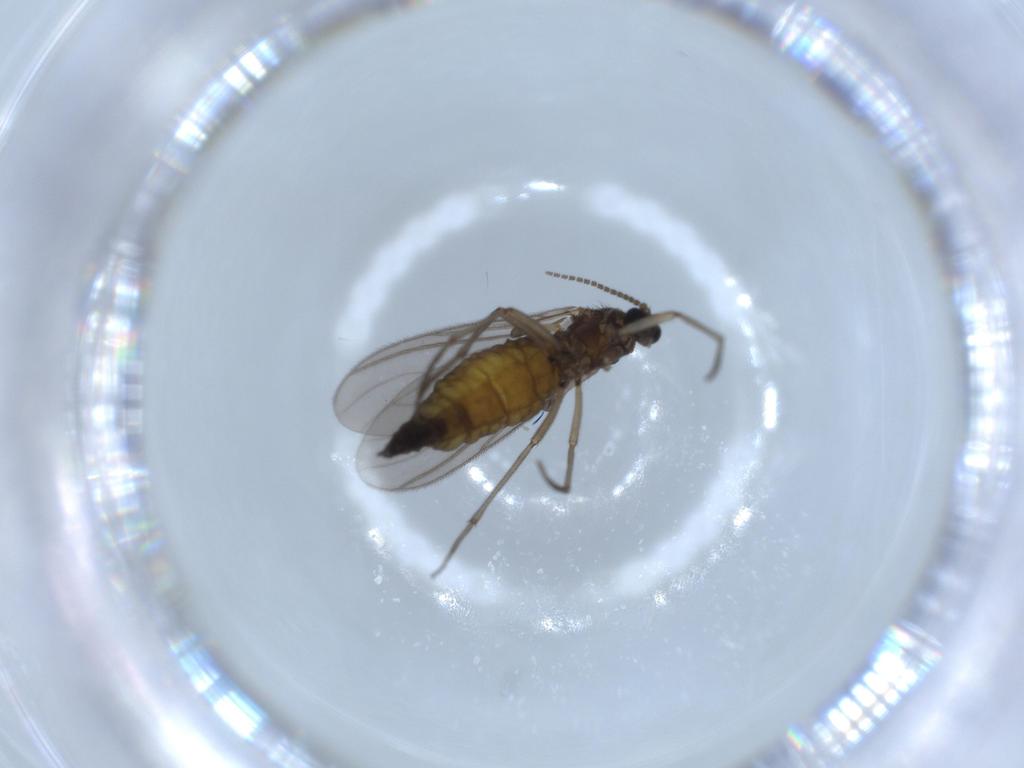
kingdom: Animalia
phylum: Arthropoda
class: Insecta
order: Diptera
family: Sciaridae
